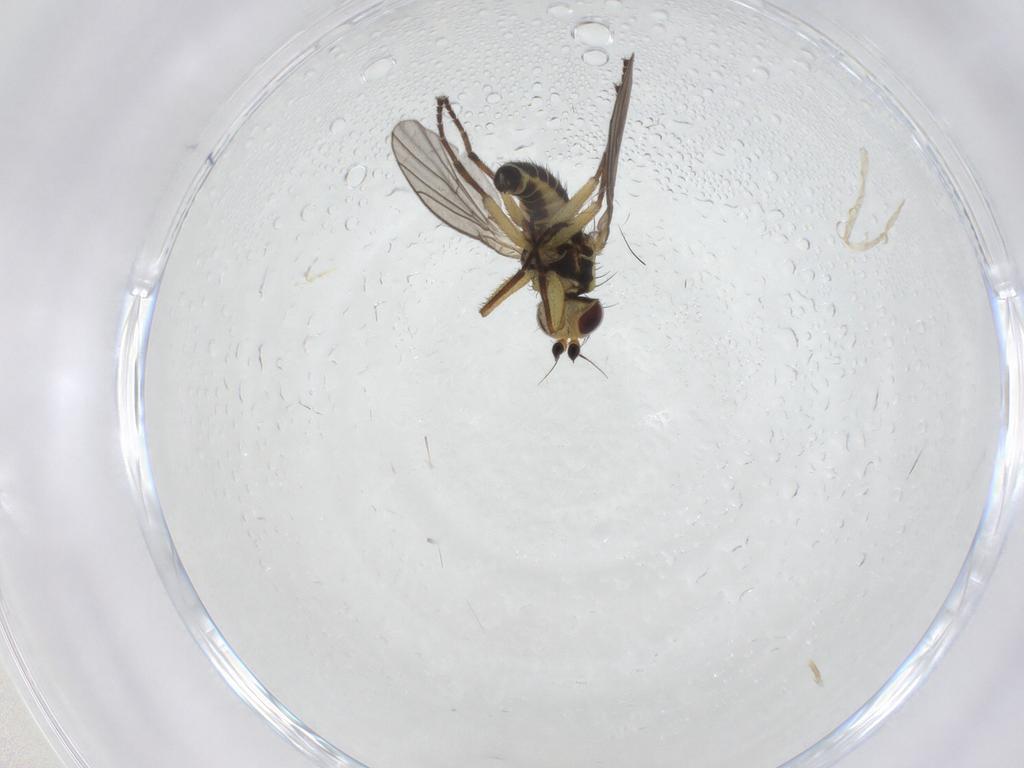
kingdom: Animalia
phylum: Arthropoda
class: Insecta
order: Diptera
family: Agromyzidae
